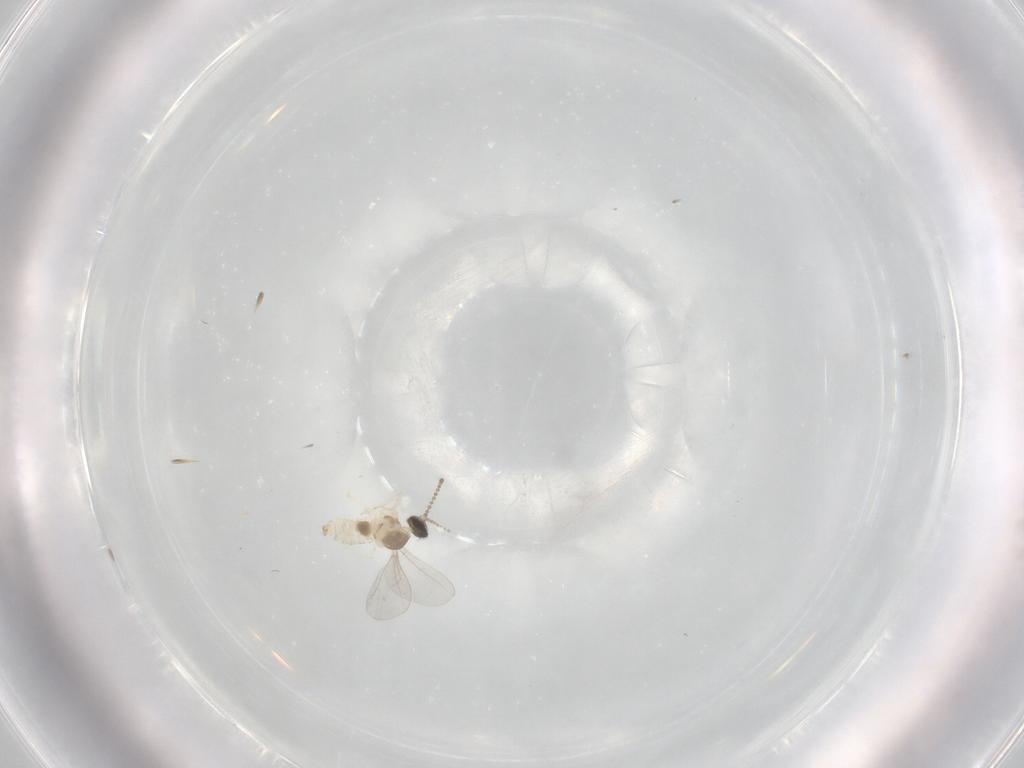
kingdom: Animalia
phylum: Arthropoda
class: Insecta
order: Diptera
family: Cecidomyiidae
